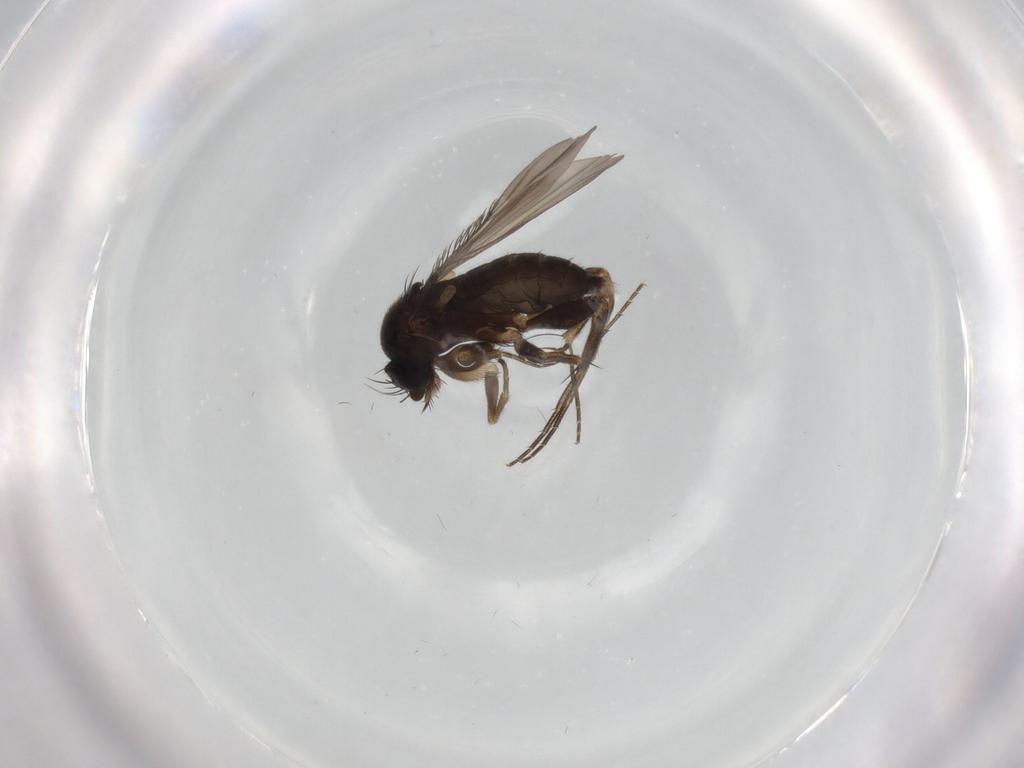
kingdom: Animalia
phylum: Arthropoda
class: Insecta
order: Diptera
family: Phoridae
